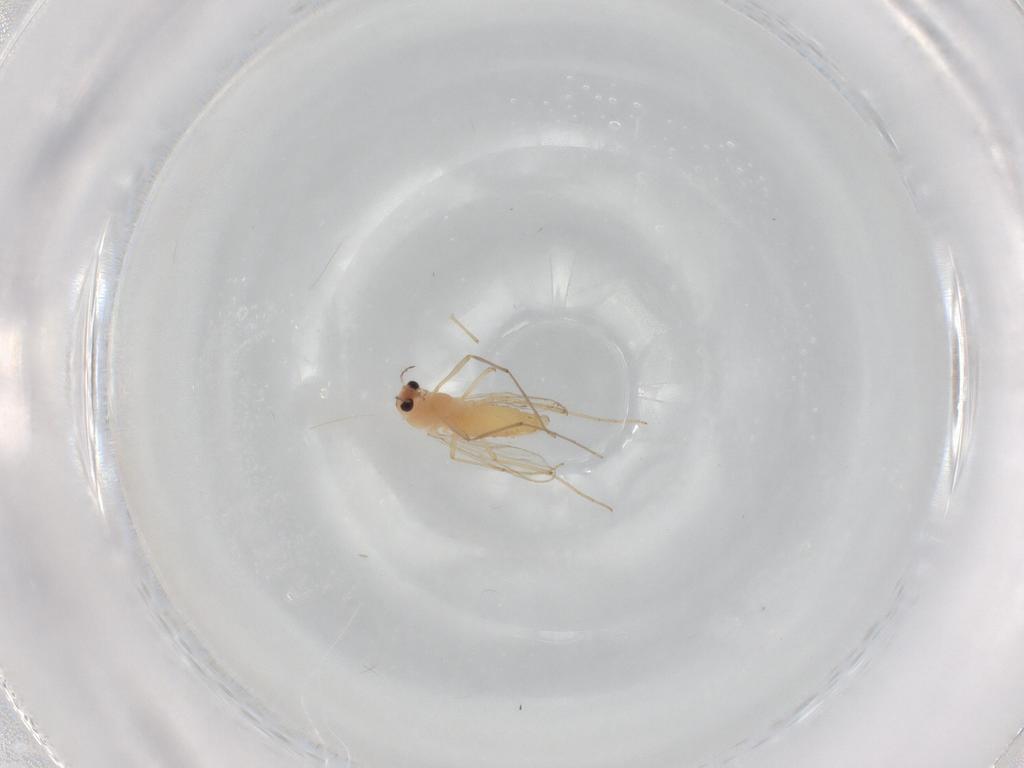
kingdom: Animalia
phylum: Arthropoda
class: Insecta
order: Diptera
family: Chironomidae
